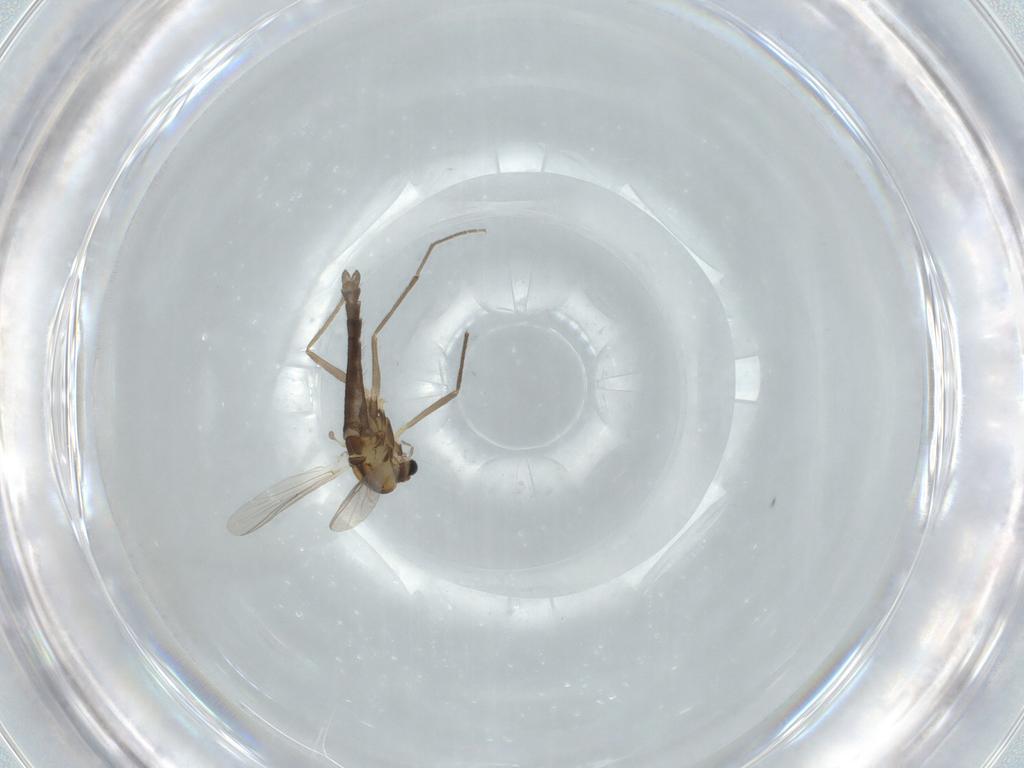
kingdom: Animalia
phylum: Arthropoda
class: Insecta
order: Diptera
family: Chironomidae
